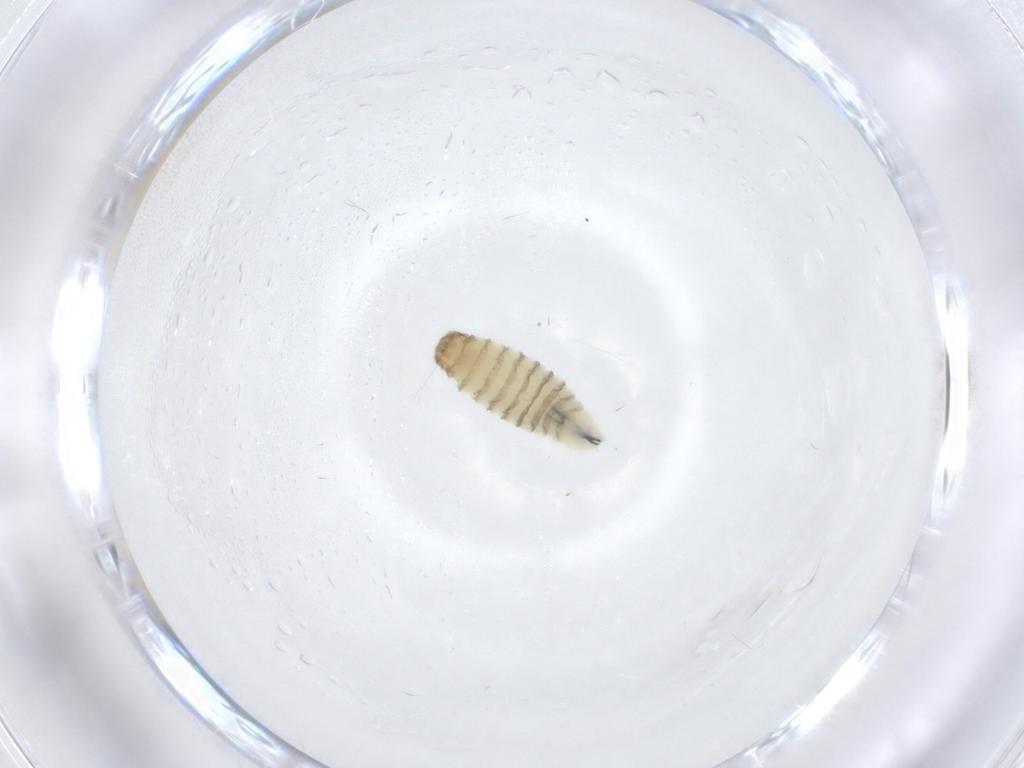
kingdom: Animalia
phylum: Arthropoda
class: Insecta
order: Diptera
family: Sarcophagidae
